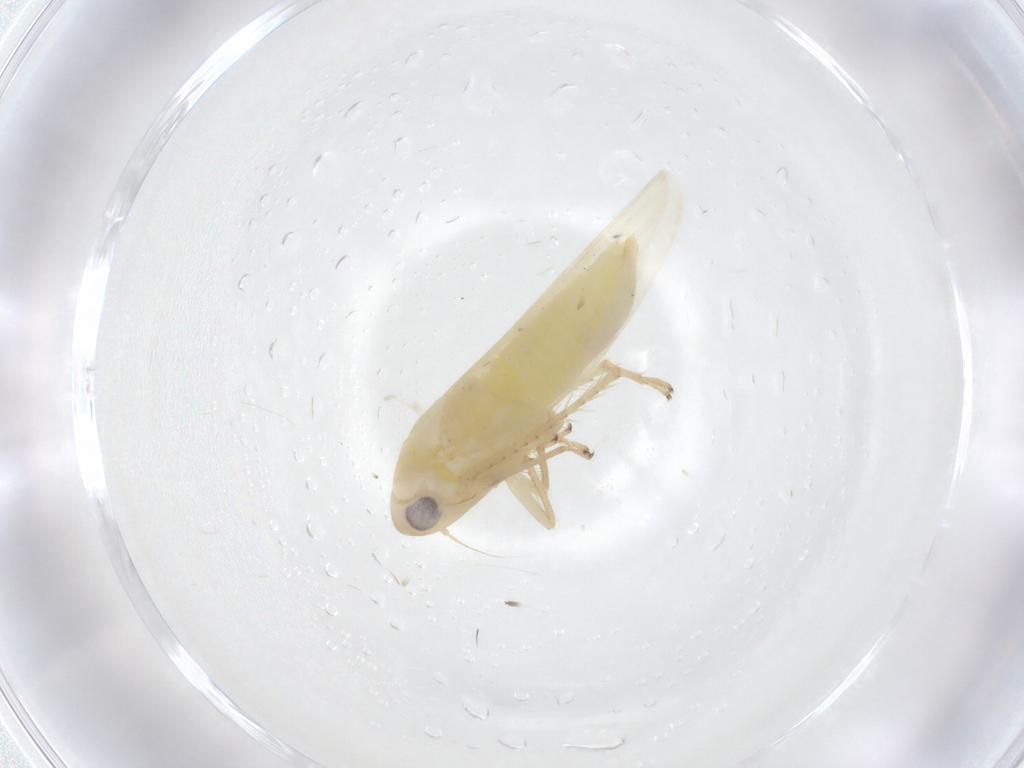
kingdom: Animalia
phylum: Arthropoda
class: Insecta
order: Hemiptera
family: Cicadellidae
